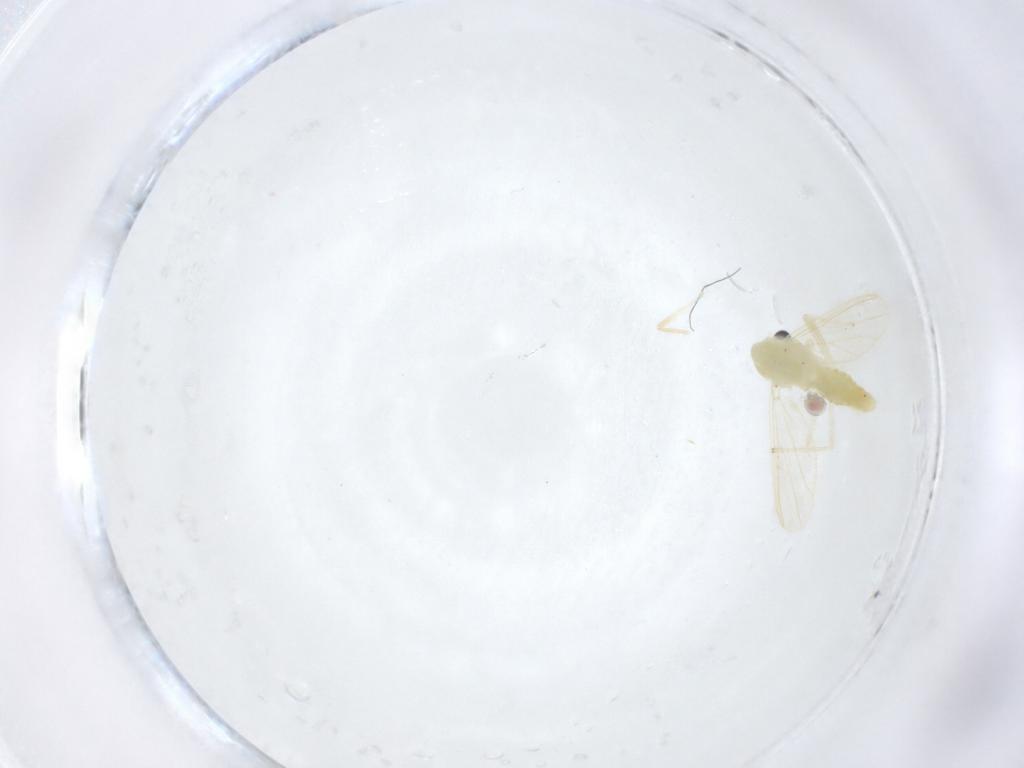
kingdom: Animalia
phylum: Arthropoda
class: Insecta
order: Diptera
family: Chironomidae
